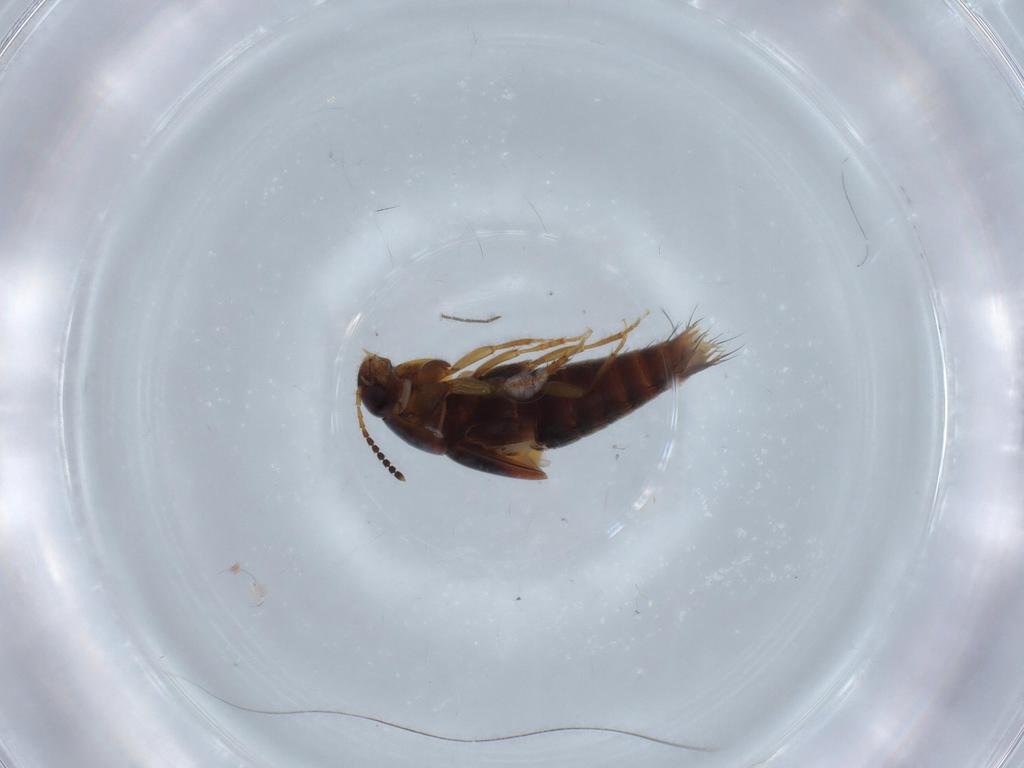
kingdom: Animalia
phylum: Arthropoda
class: Insecta
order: Coleoptera
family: Staphylinidae
